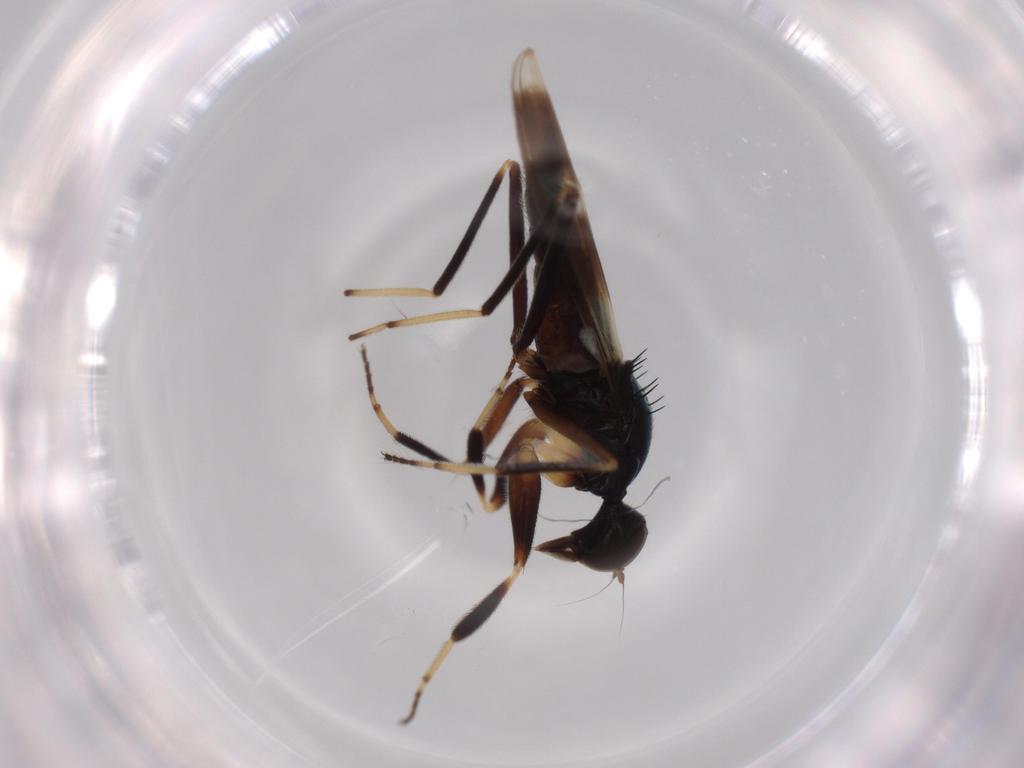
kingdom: Animalia
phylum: Arthropoda
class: Insecta
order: Diptera
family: Hybotidae
